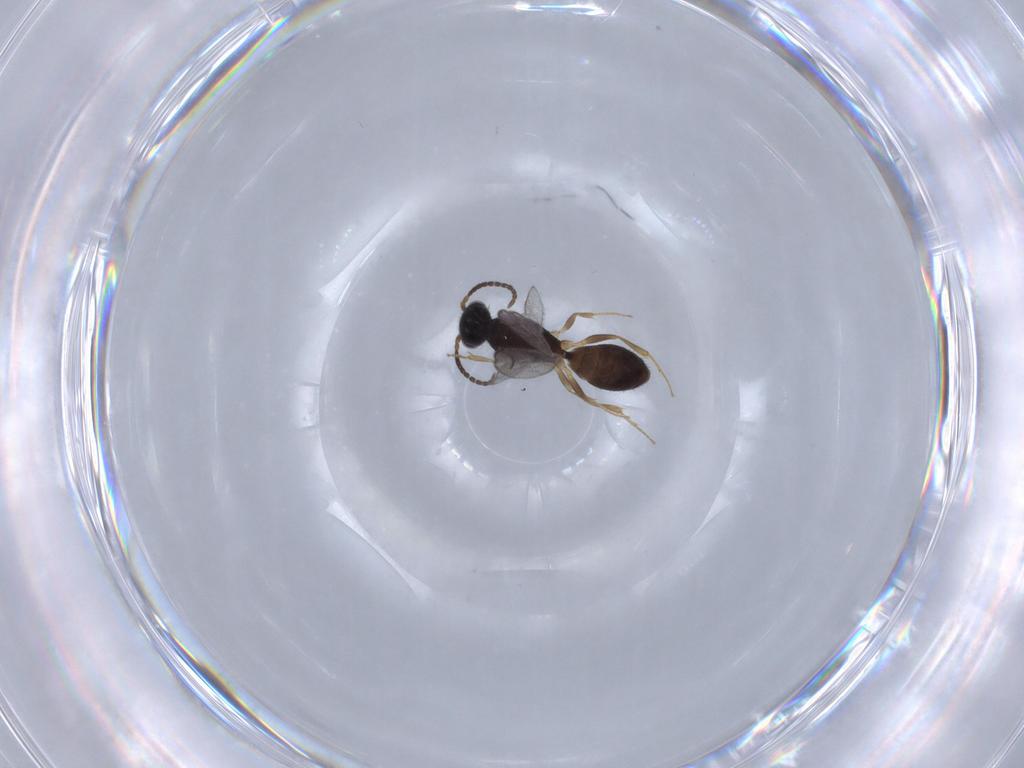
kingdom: Animalia
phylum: Arthropoda
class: Insecta
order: Hymenoptera
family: Bethylidae
